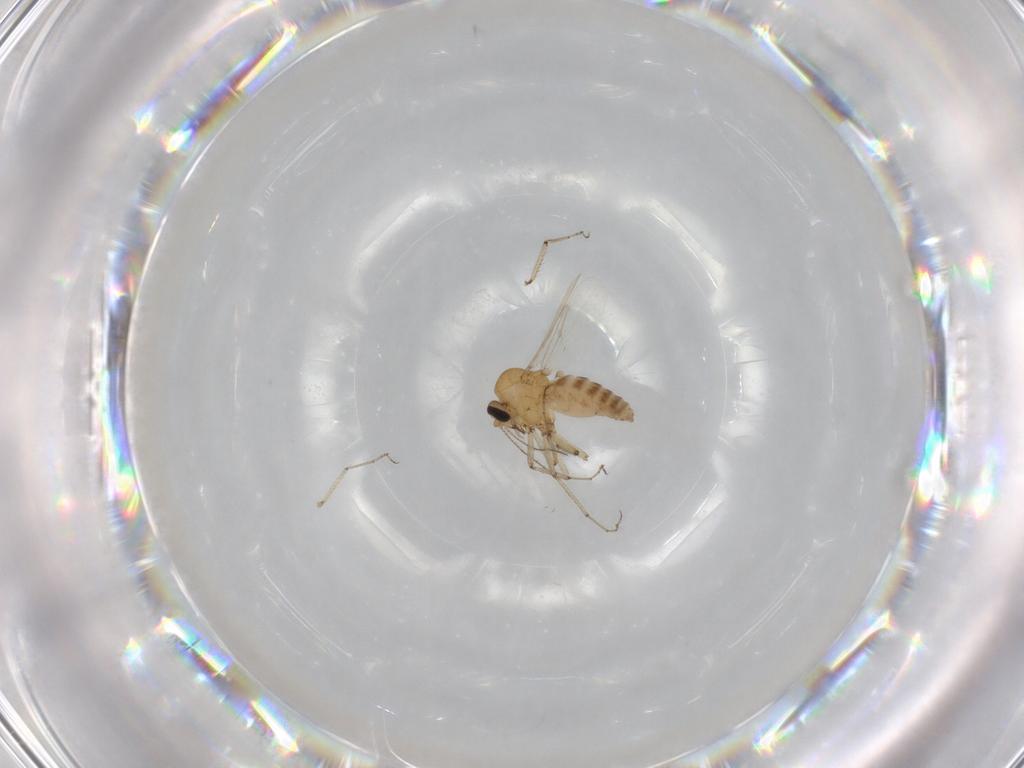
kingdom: Animalia
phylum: Arthropoda
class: Insecta
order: Diptera
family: Ceratopogonidae
